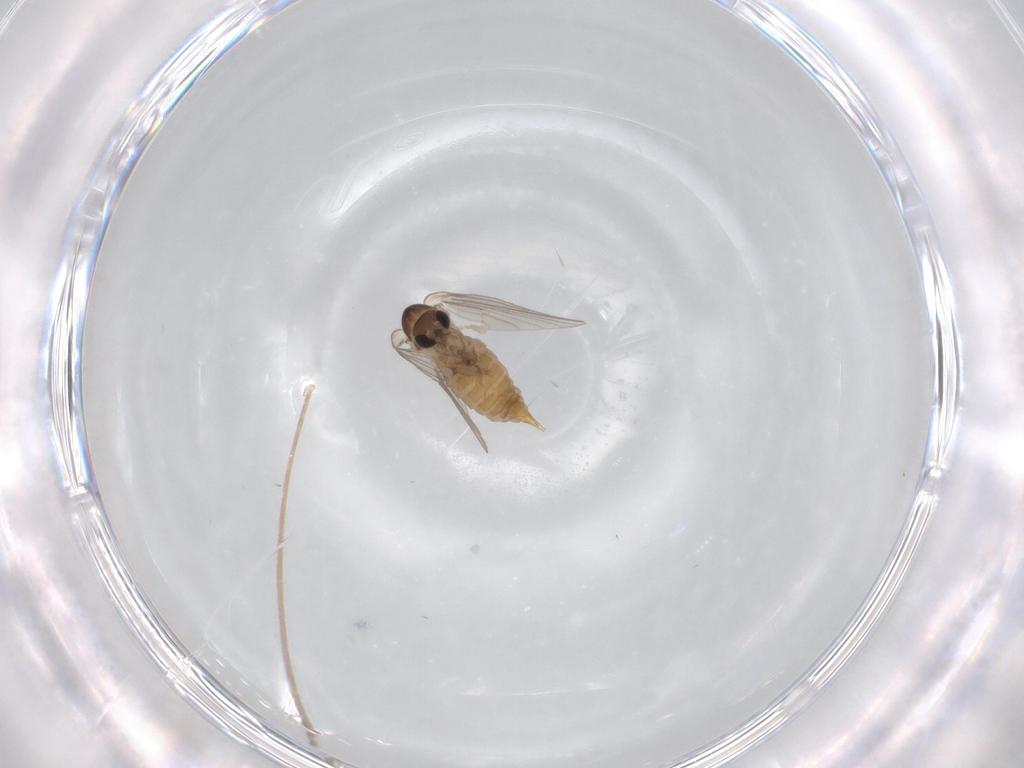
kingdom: Animalia
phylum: Arthropoda
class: Insecta
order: Diptera
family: Psychodidae
